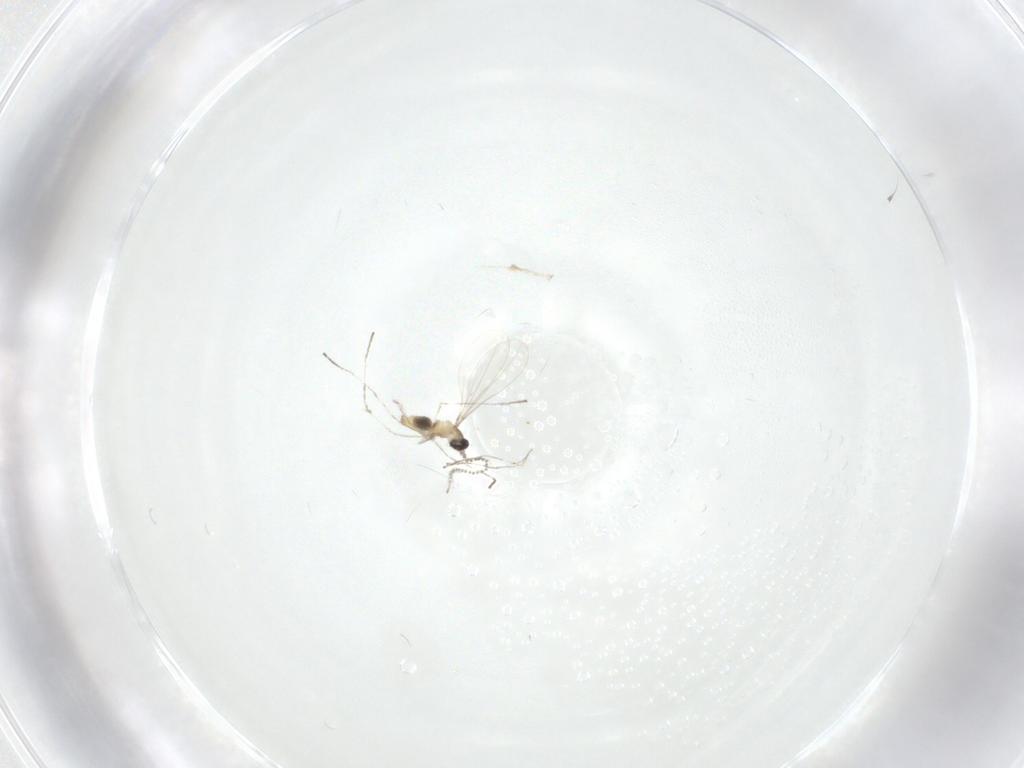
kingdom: Animalia
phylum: Arthropoda
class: Insecta
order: Diptera
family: Cecidomyiidae
